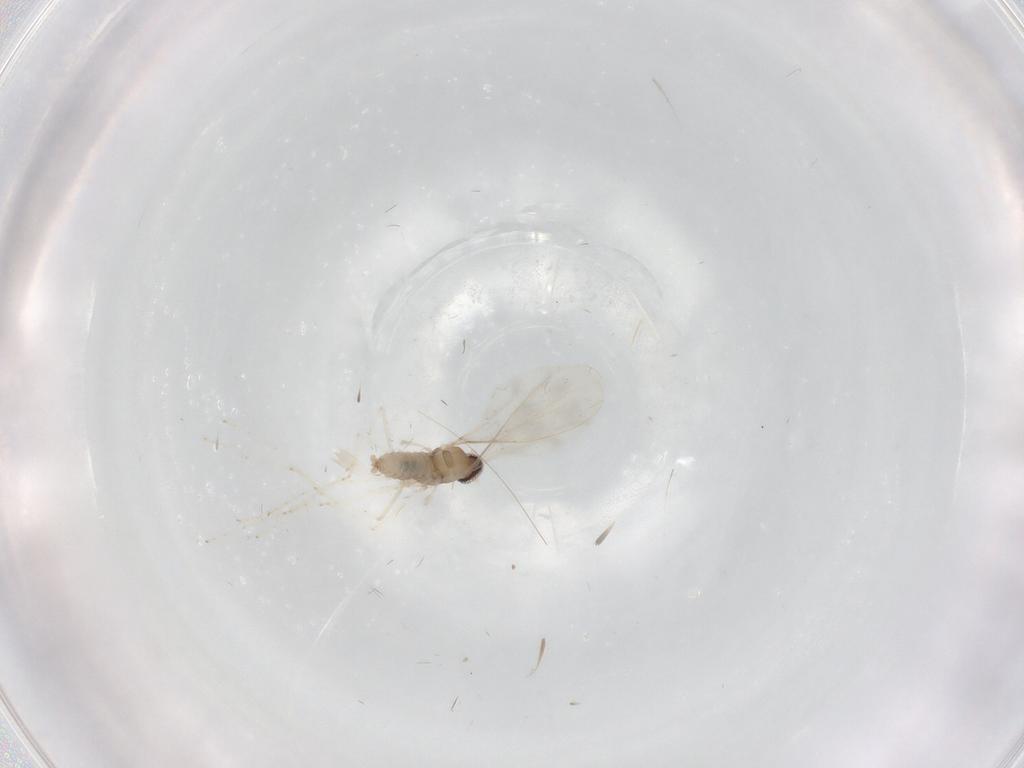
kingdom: Animalia
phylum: Arthropoda
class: Insecta
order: Diptera
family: Cecidomyiidae
